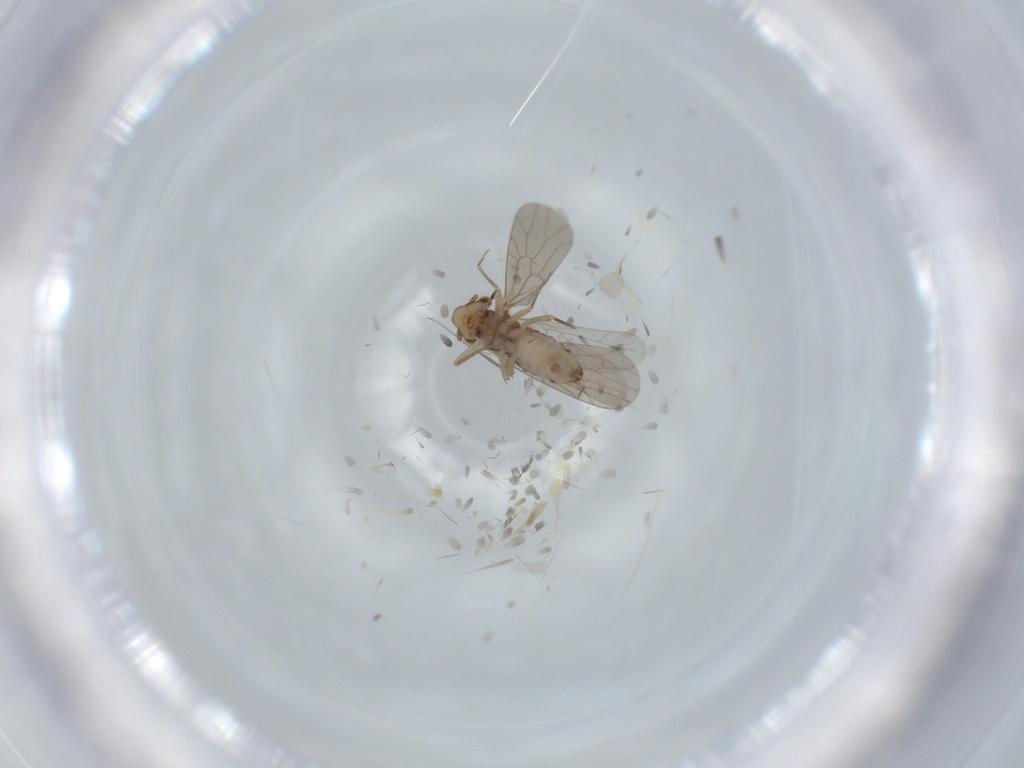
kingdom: Animalia
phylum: Arthropoda
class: Insecta
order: Psocodea
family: Lepidopsocidae
